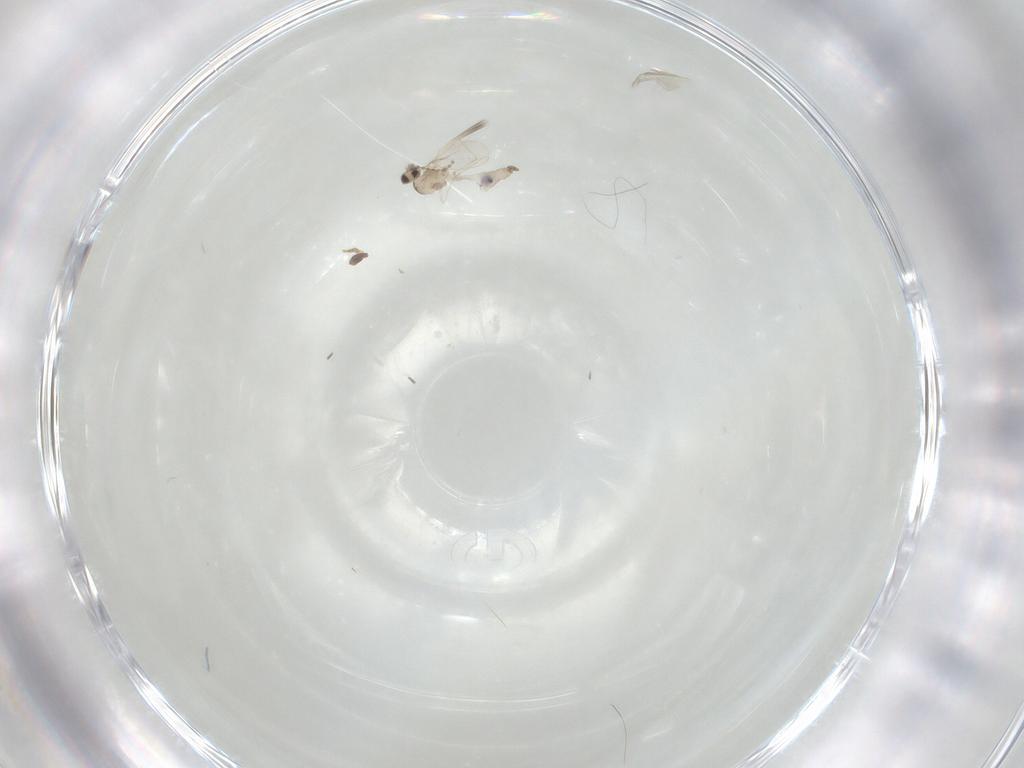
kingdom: Animalia
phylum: Arthropoda
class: Insecta
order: Diptera
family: Cecidomyiidae
